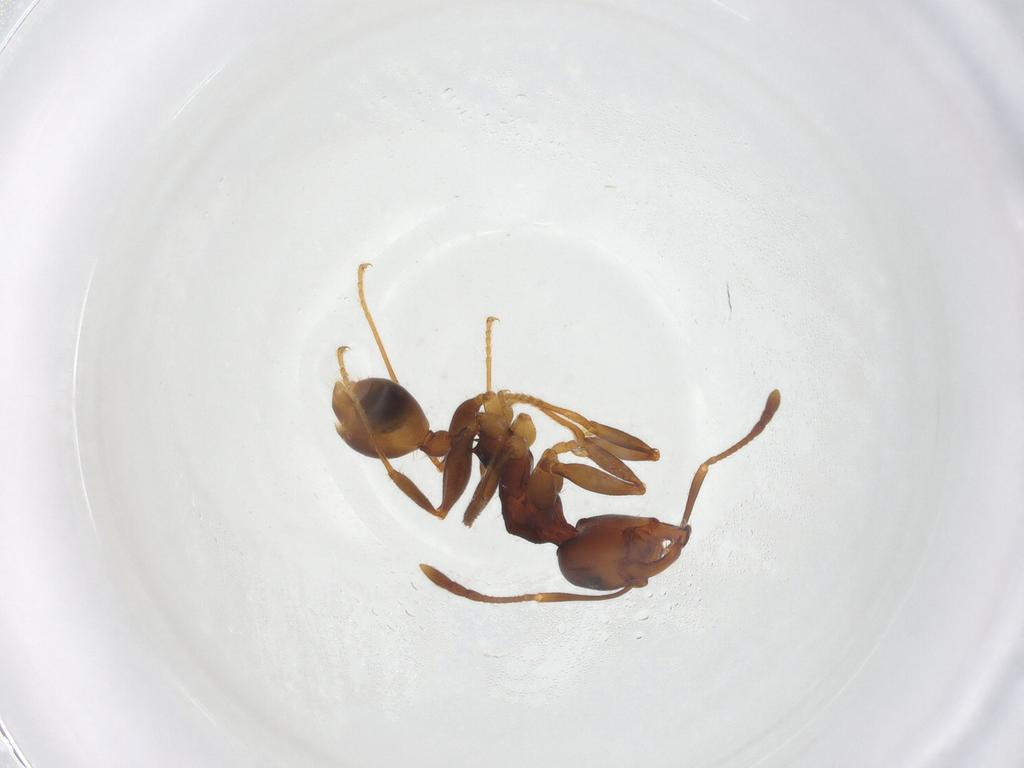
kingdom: Animalia
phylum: Arthropoda
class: Insecta
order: Hymenoptera
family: Formicidae
